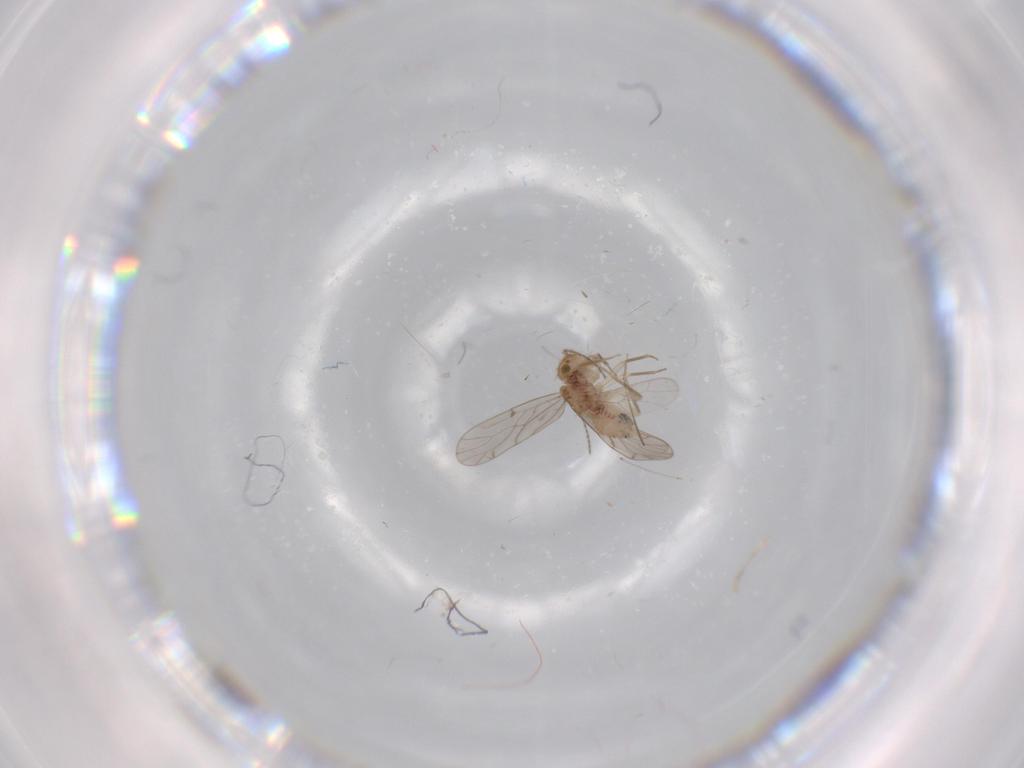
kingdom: Animalia
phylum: Arthropoda
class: Insecta
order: Psocodea
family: Ectopsocidae
